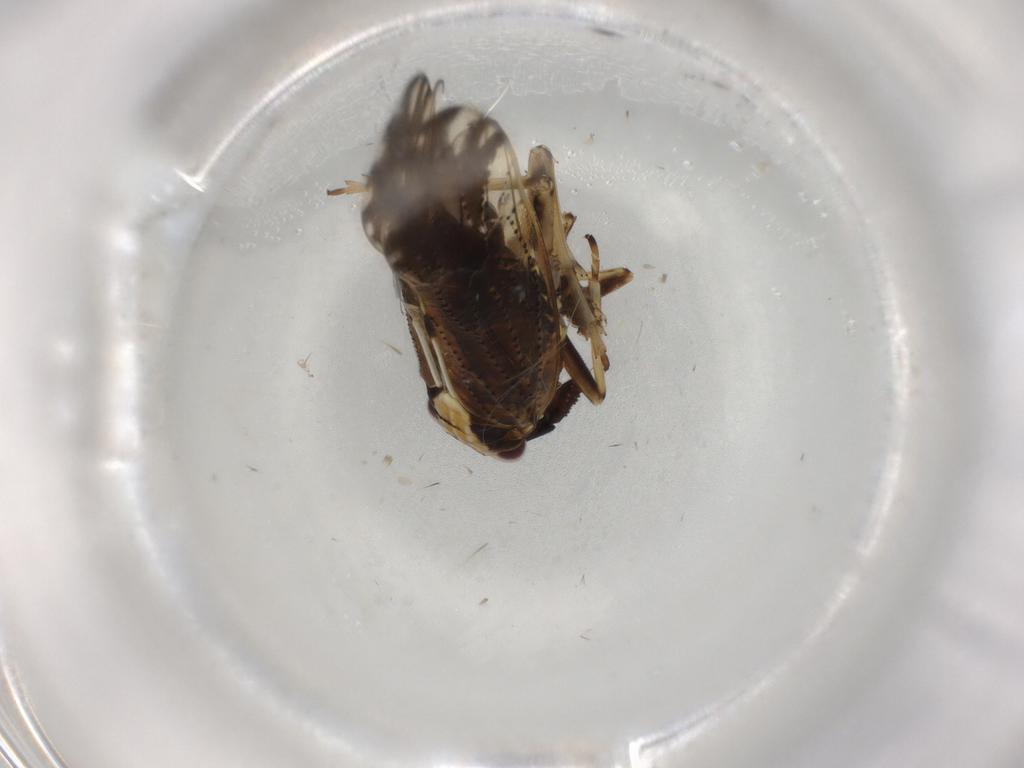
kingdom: Animalia
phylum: Arthropoda
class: Insecta
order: Hemiptera
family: Delphacidae
